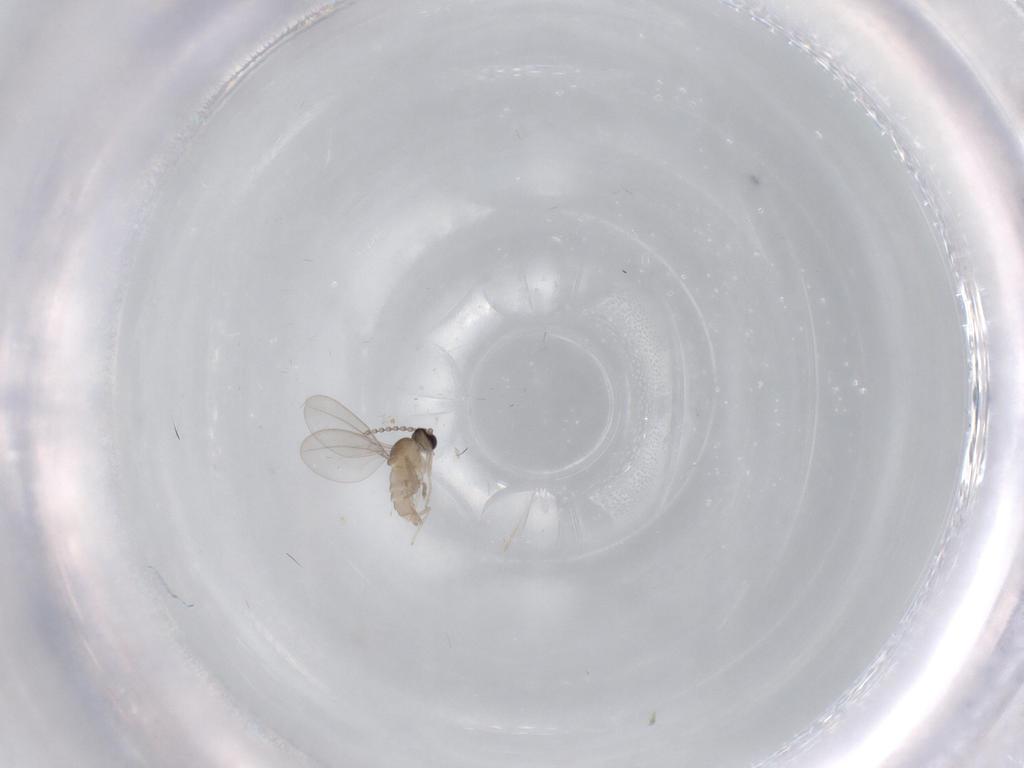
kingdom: Animalia
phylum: Arthropoda
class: Insecta
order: Diptera
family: Cecidomyiidae
